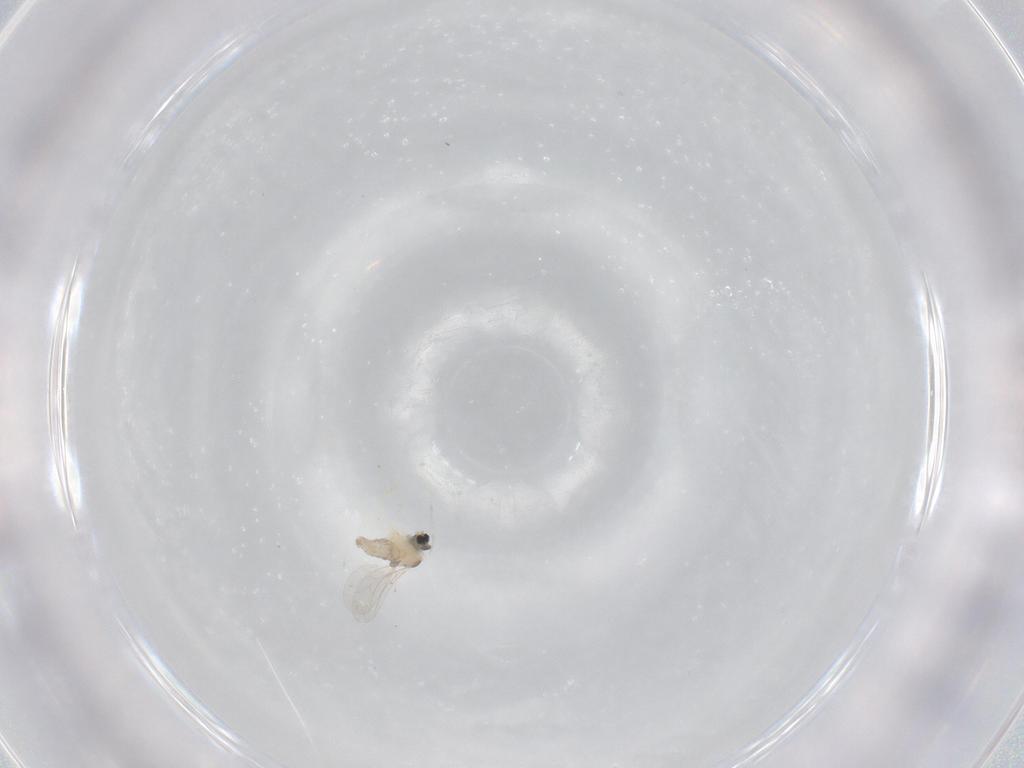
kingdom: Animalia
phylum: Arthropoda
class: Insecta
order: Diptera
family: Cecidomyiidae
